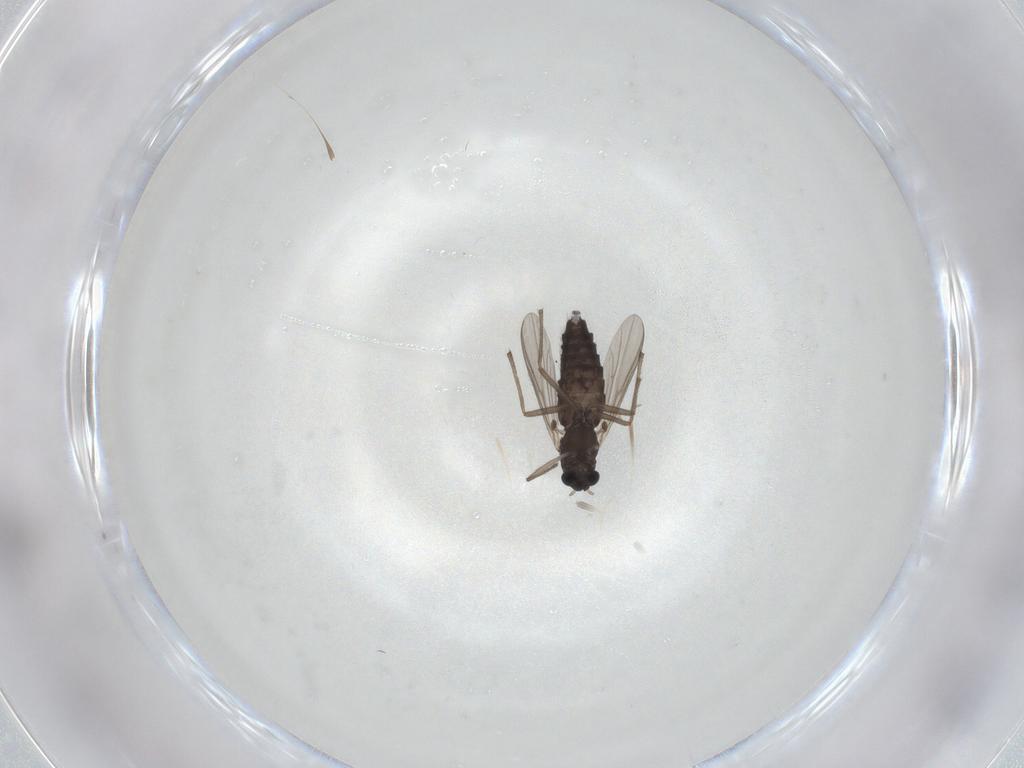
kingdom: Animalia
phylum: Arthropoda
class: Insecta
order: Diptera
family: Chironomidae
